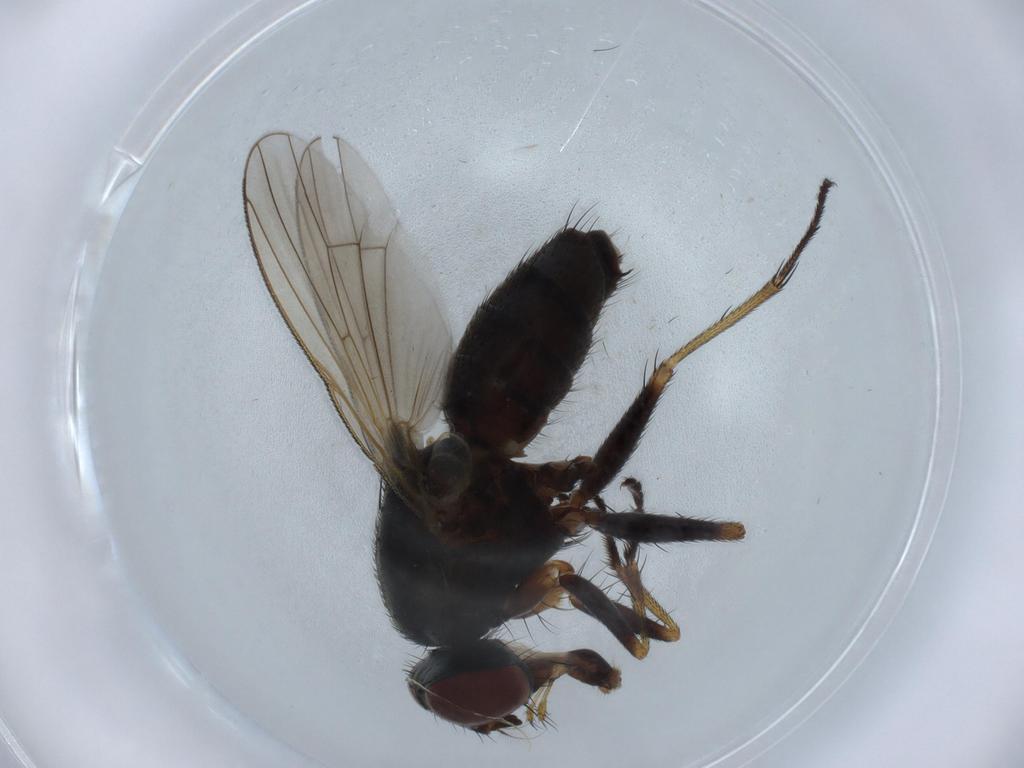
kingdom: Animalia
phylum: Arthropoda
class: Insecta
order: Diptera
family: Muscidae
